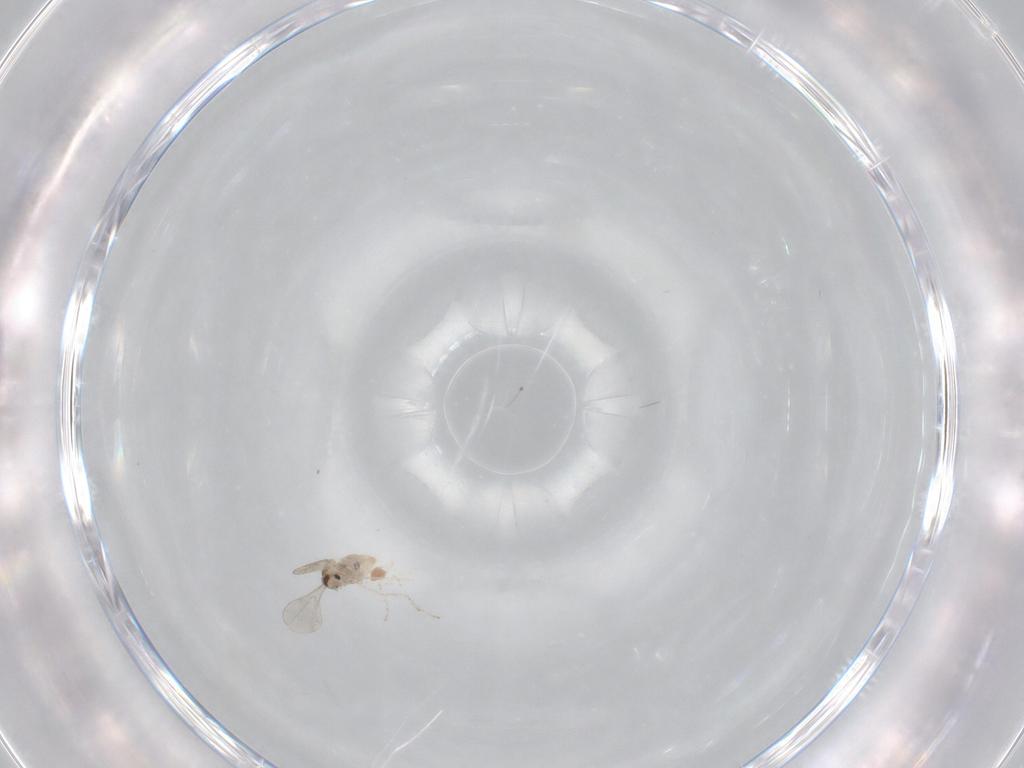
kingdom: Animalia
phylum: Arthropoda
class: Insecta
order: Diptera
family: Cecidomyiidae
